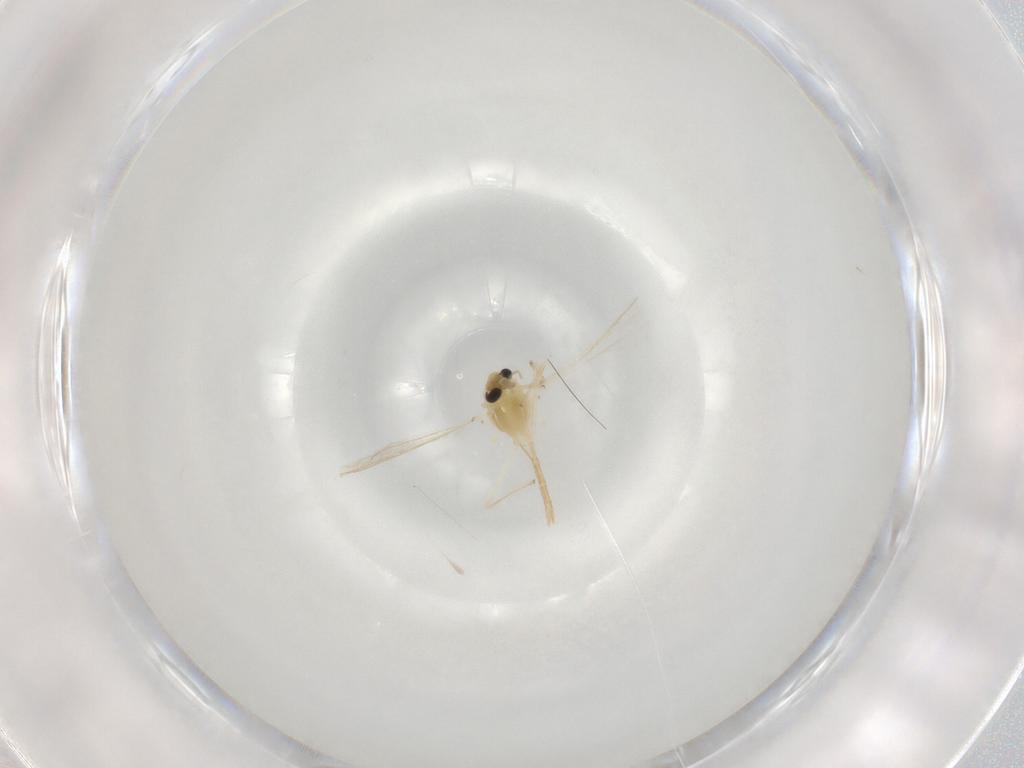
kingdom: Animalia
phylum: Arthropoda
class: Insecta
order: Diptera
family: Chironomidae
